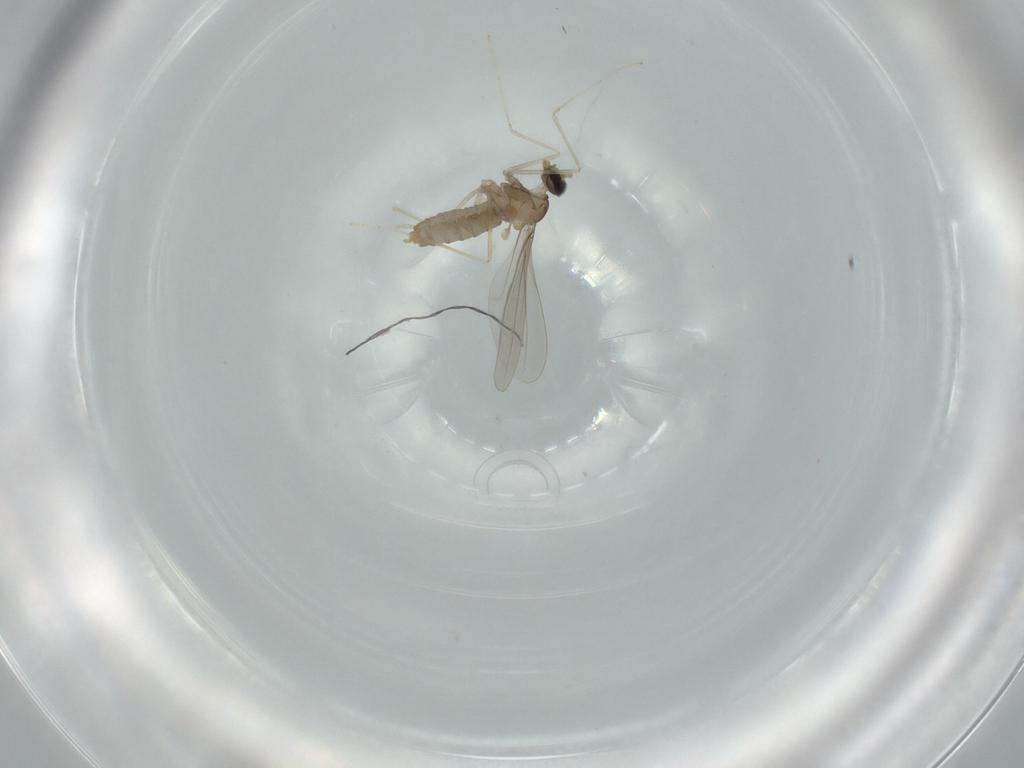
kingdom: Animalia
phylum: Arthropoda
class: Insecta
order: Diptera
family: Cecidomyiidae
